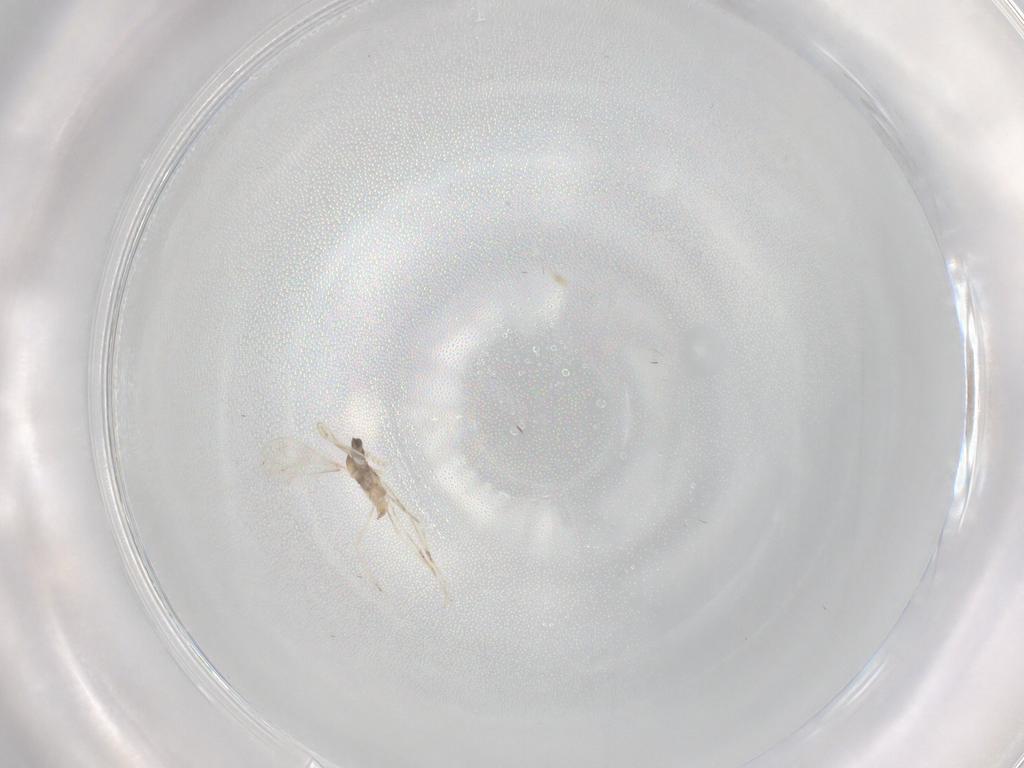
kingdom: Animalia
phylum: Arthropoda
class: Insecta
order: Diptera
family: Cecidomyiidae
